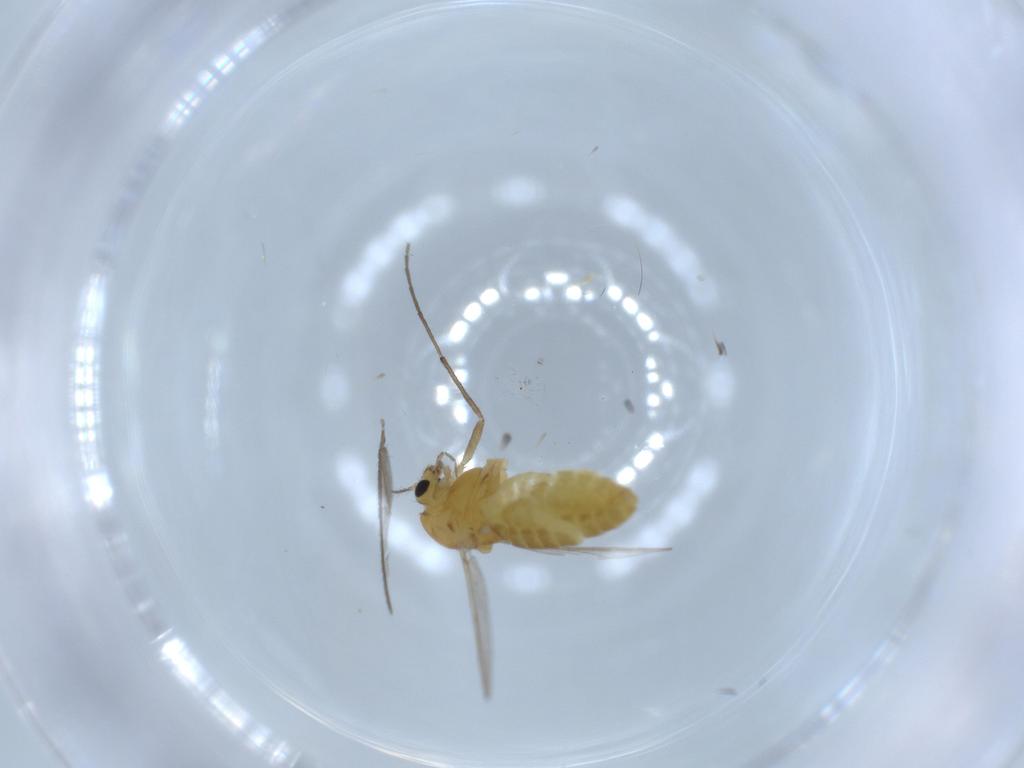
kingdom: Animalia
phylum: Arthropoda
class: Insecta
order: Diptera
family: Chironomidae
